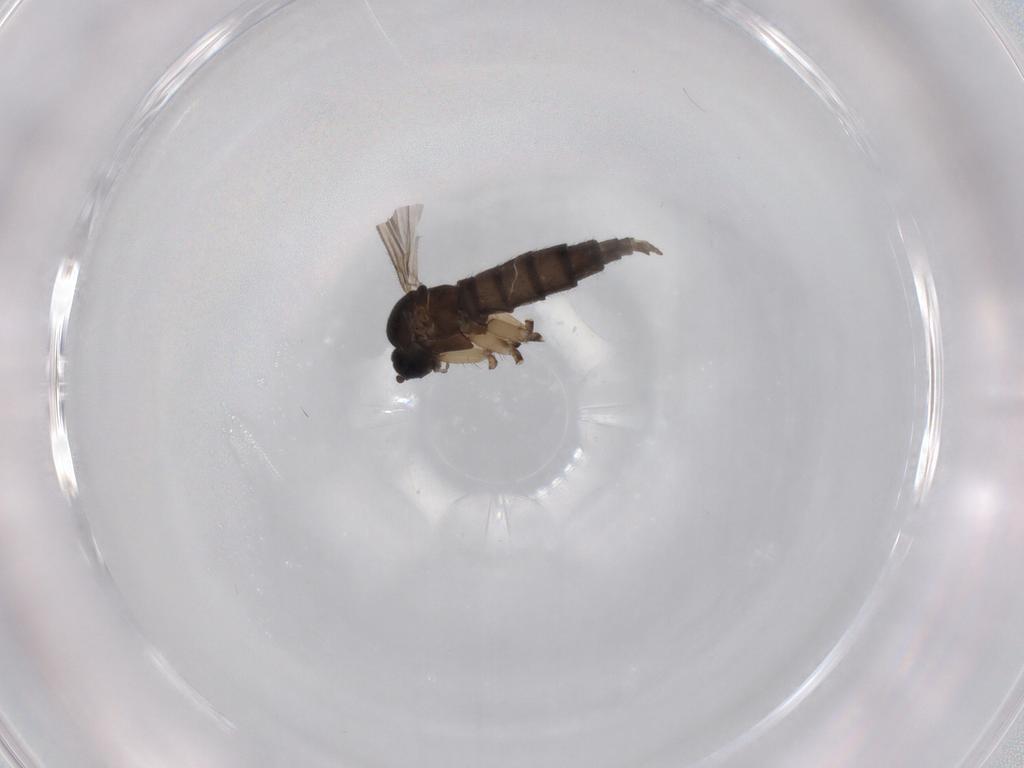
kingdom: Animalia
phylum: Arthropoda
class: Insecta
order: Diptera
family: Sciaridae
